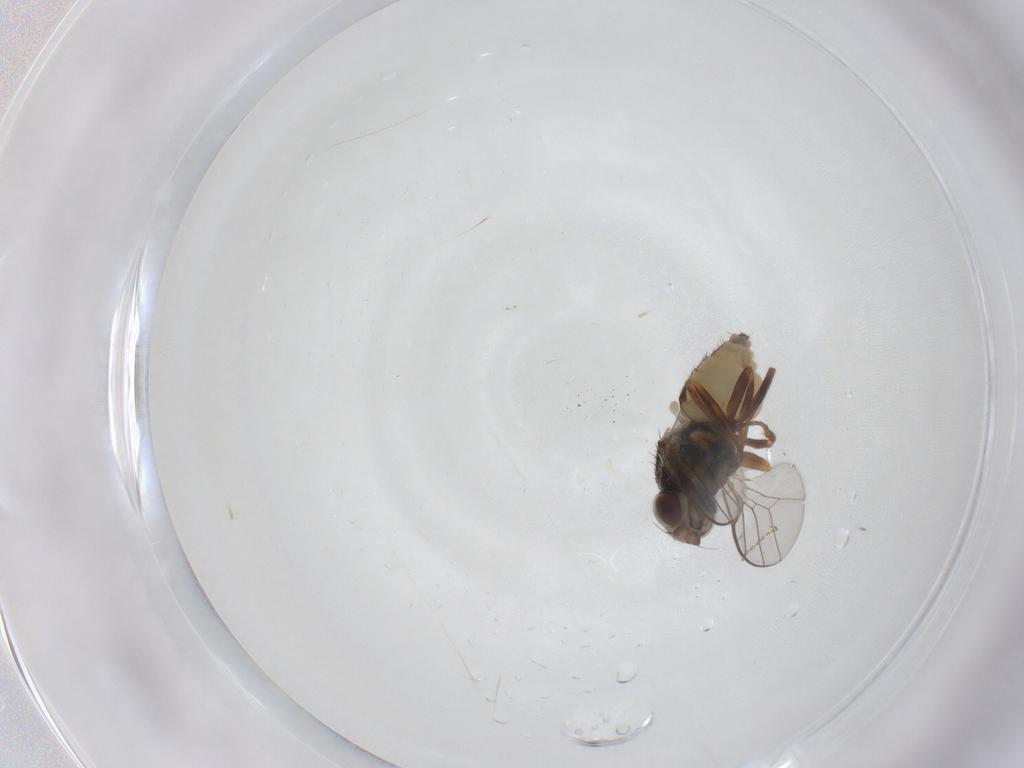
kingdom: Animalia
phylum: Arthropoda
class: Insecta
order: Diptera
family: Chloropidae
